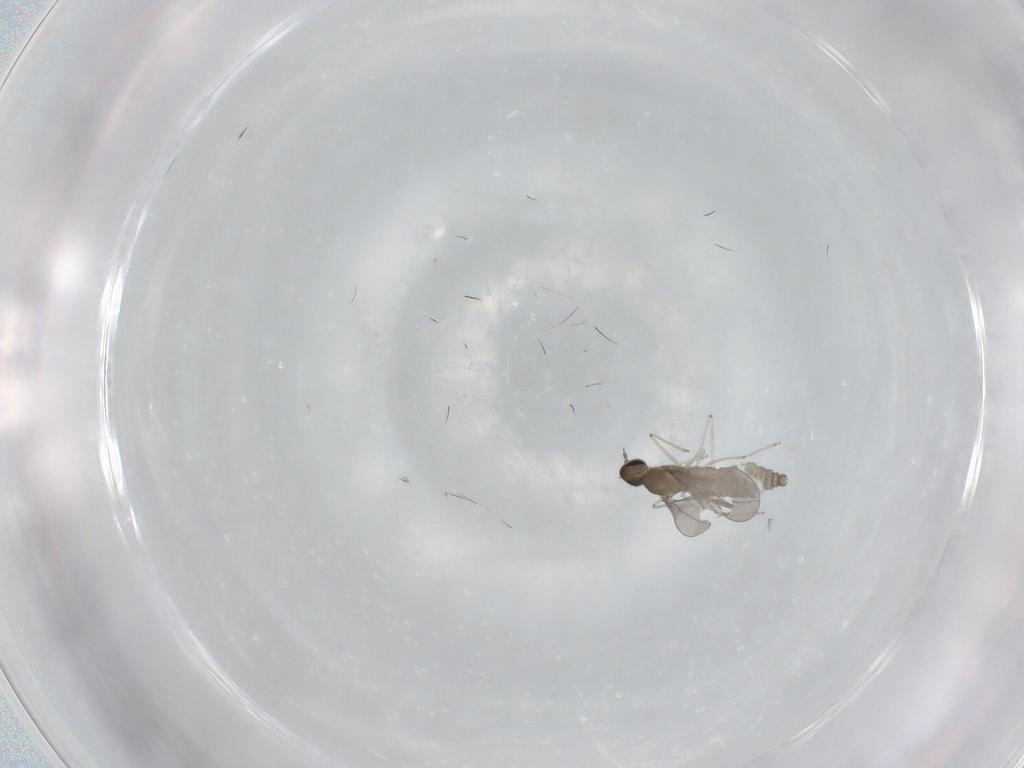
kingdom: Animalia
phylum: Arthropoda
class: Insecta
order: Diptera
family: Cecidomyiidae
